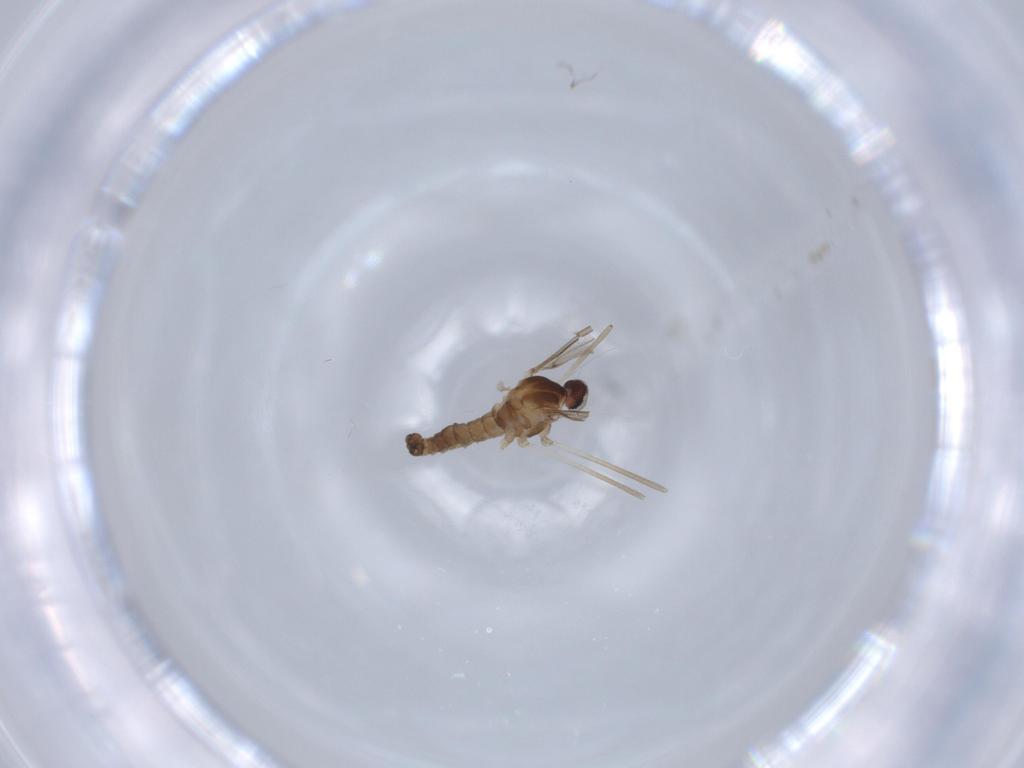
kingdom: Animalia
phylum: Arthropoda
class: Insecta
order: Diptera
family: Cecidomyiidae
